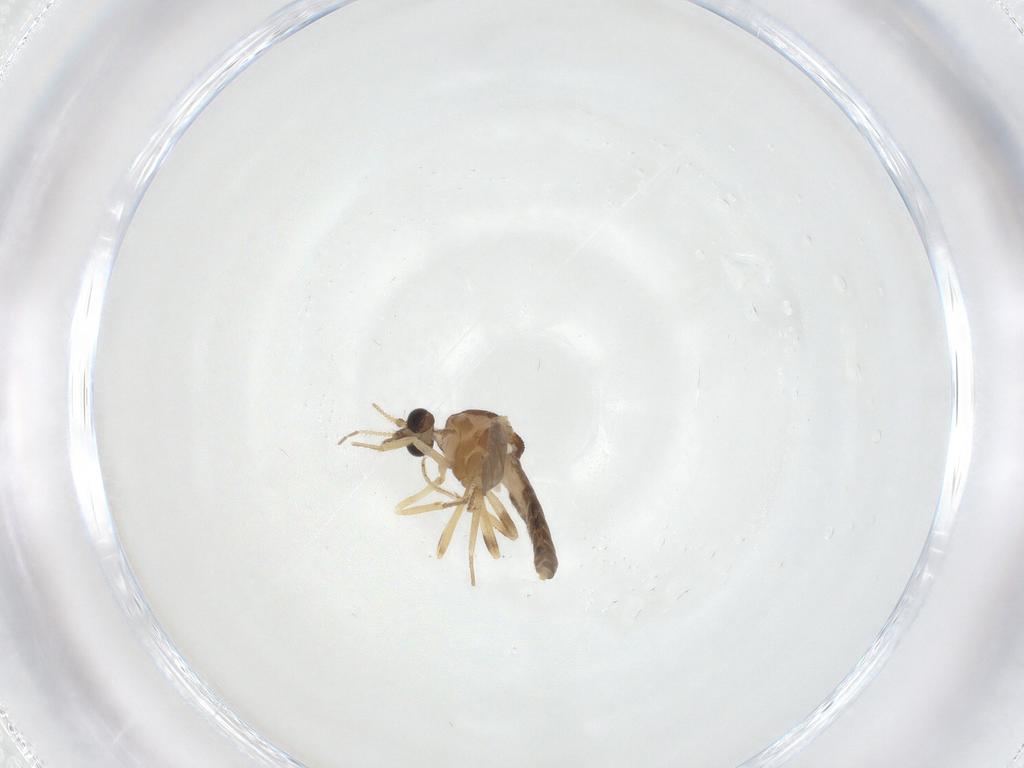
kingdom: Animalia
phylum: Arthropoda
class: Insecta
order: Diptera
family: Ceratopogonidae
